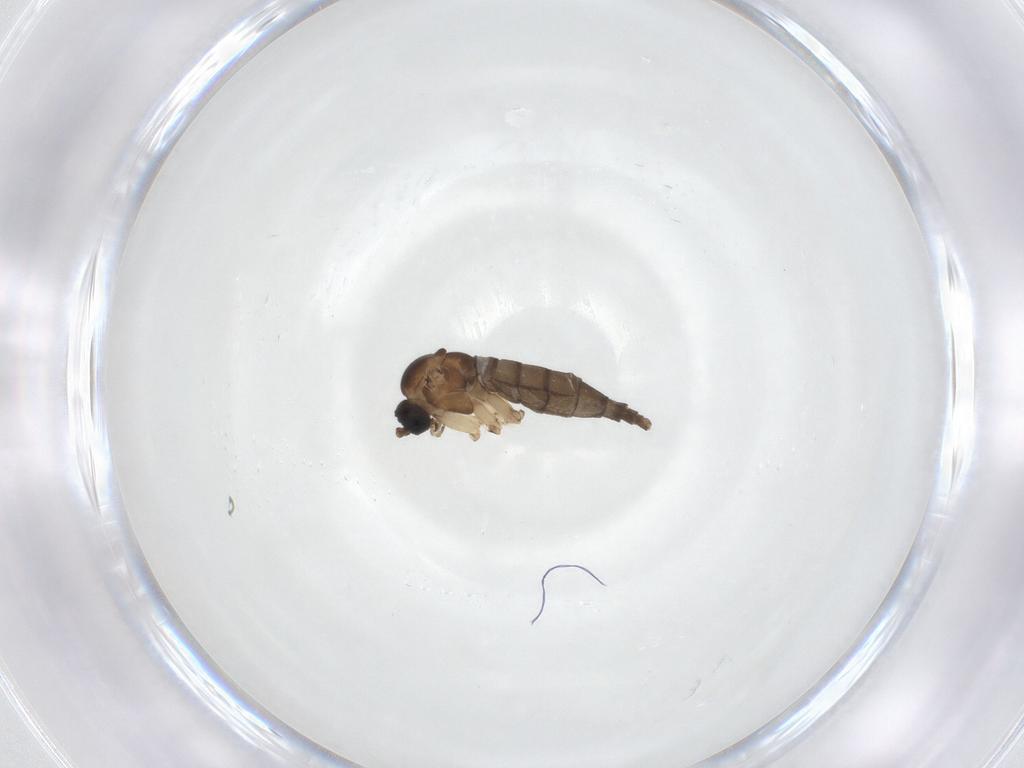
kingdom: Animalia
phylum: Arthropoda
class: Insecta
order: Diptera
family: Sciaridae
